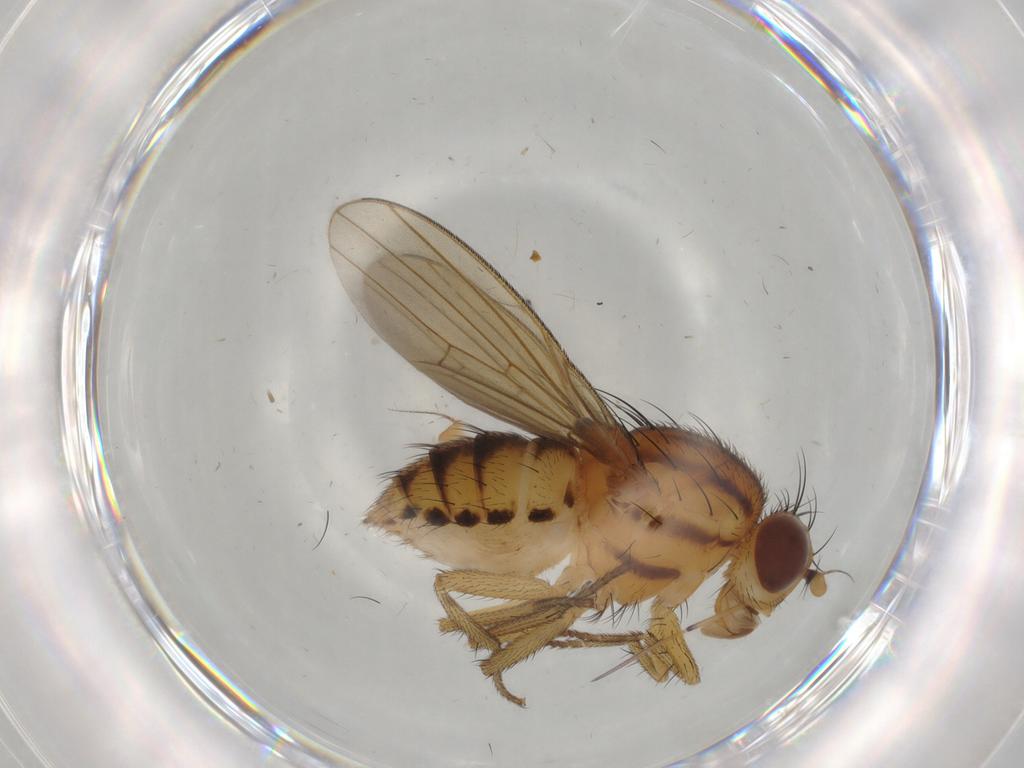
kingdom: Animalia
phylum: Arthropoda
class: Insecta
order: Diptera
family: Dolichopodidae
